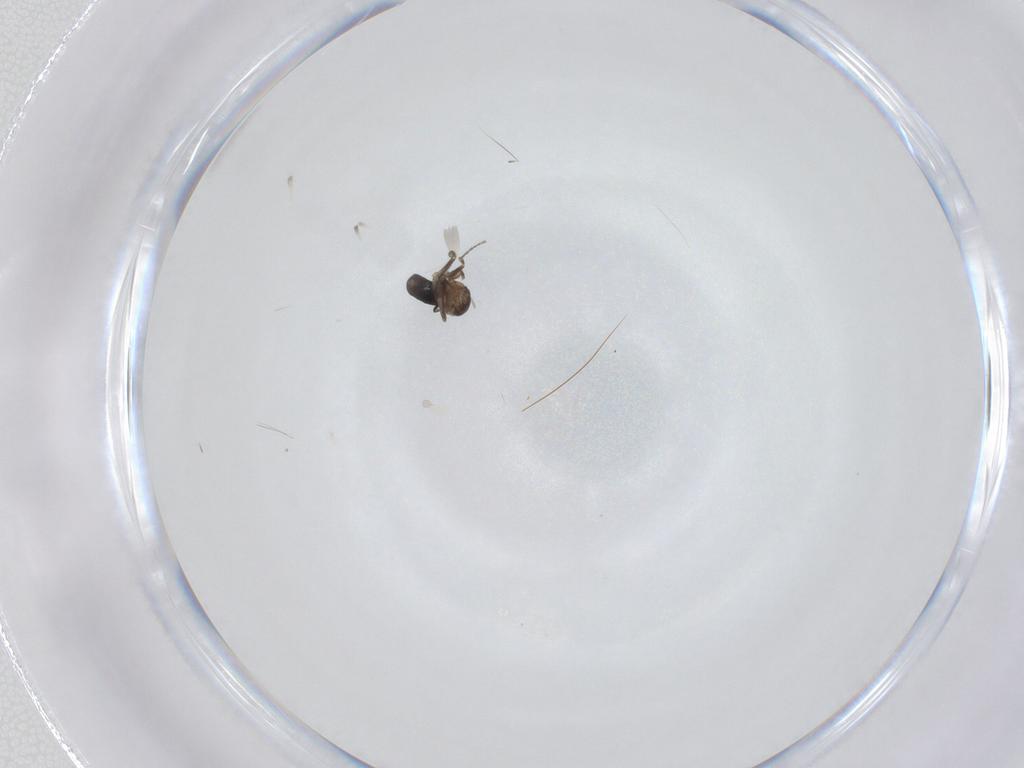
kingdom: Animalia
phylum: Arthropoda
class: Insecta
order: Diptera
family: Phoridae
